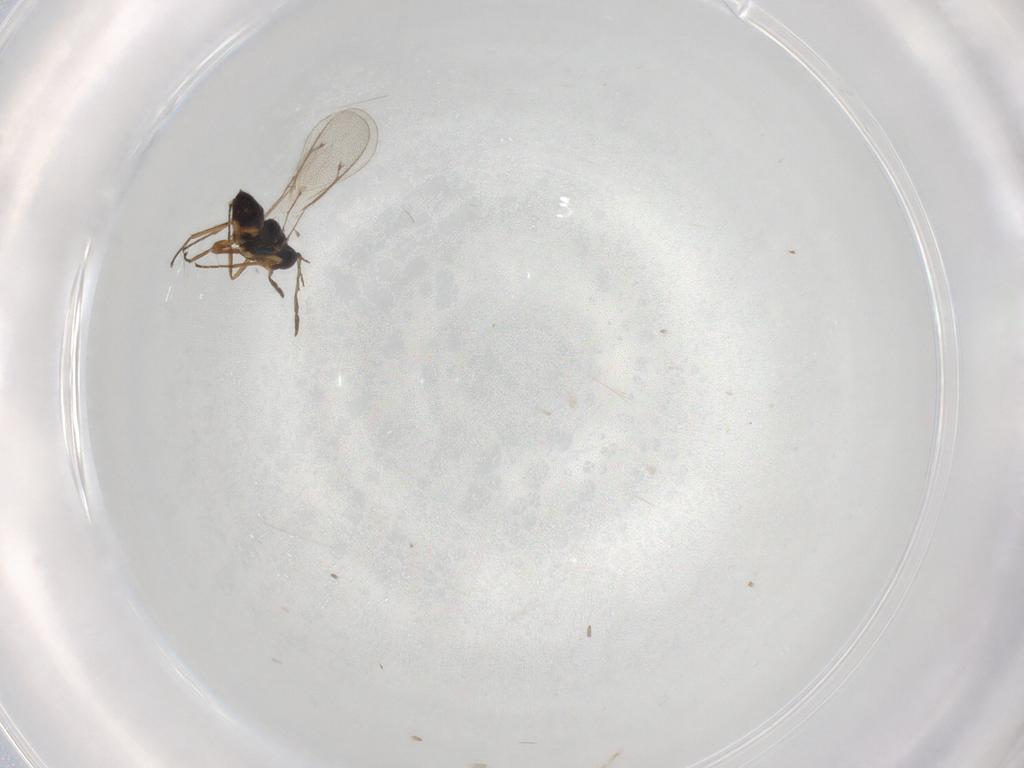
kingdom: Animalia
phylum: Arthropoda
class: Insecta
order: Hymenoptera
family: Eulophidae
